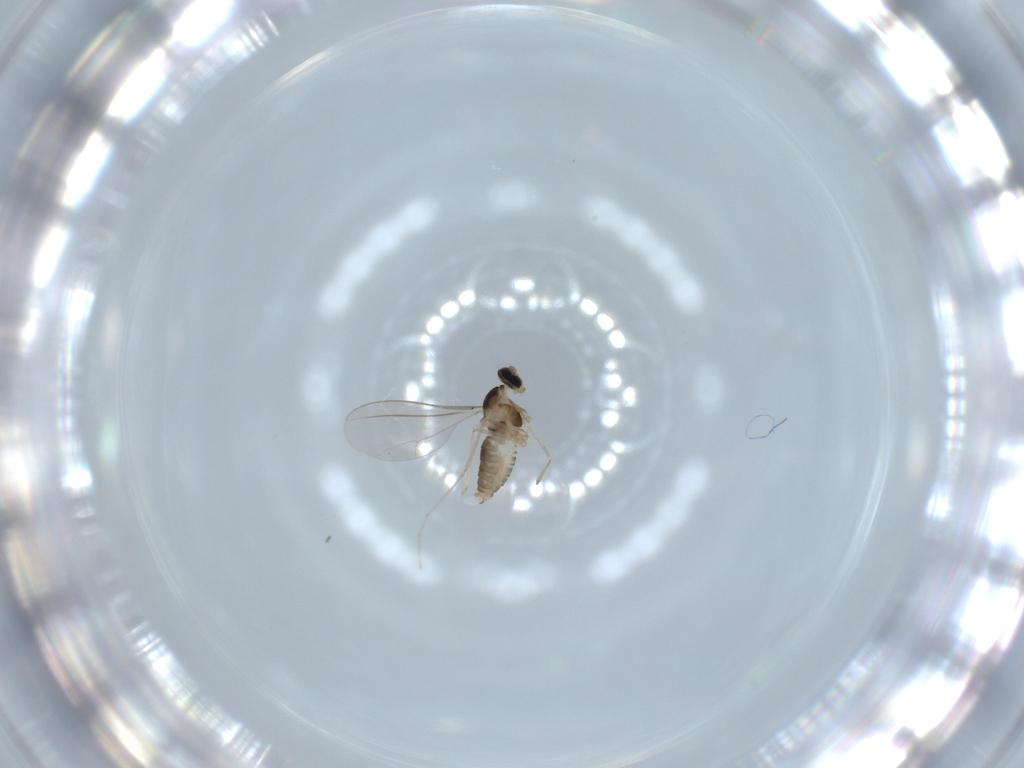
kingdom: Animalia
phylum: Arthropoda
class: Insecta
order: Diptera
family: Cecidomyiidae
